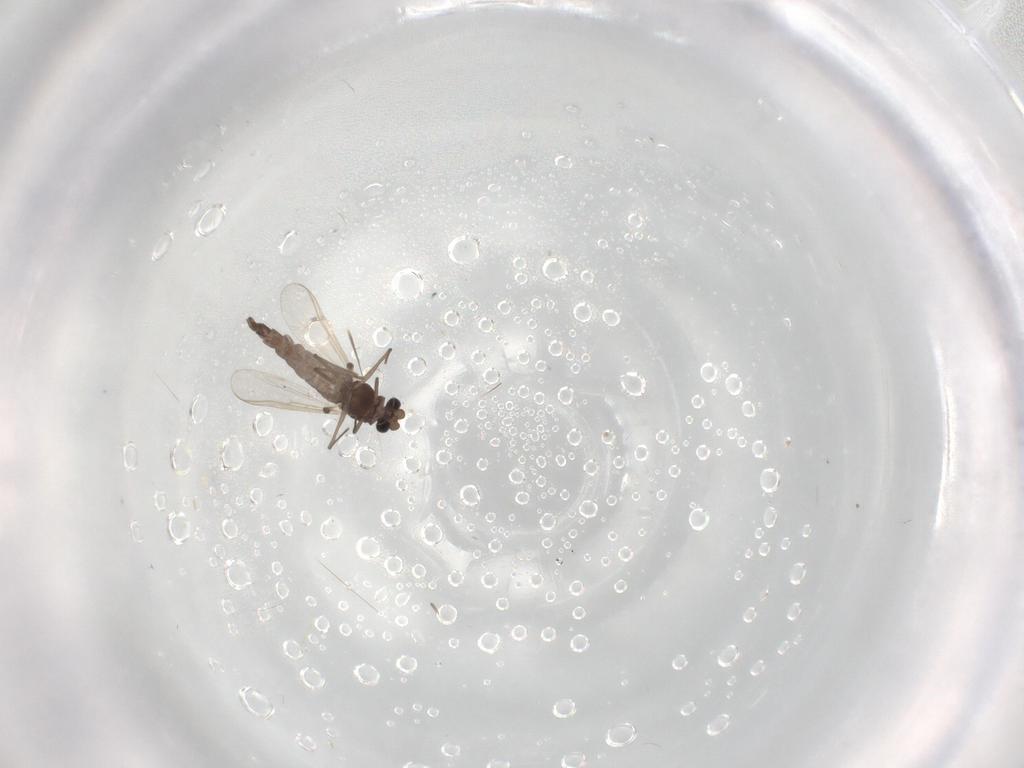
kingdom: Animalia
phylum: Arthropoda
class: Insecta
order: Diptera
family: Chironomidae
